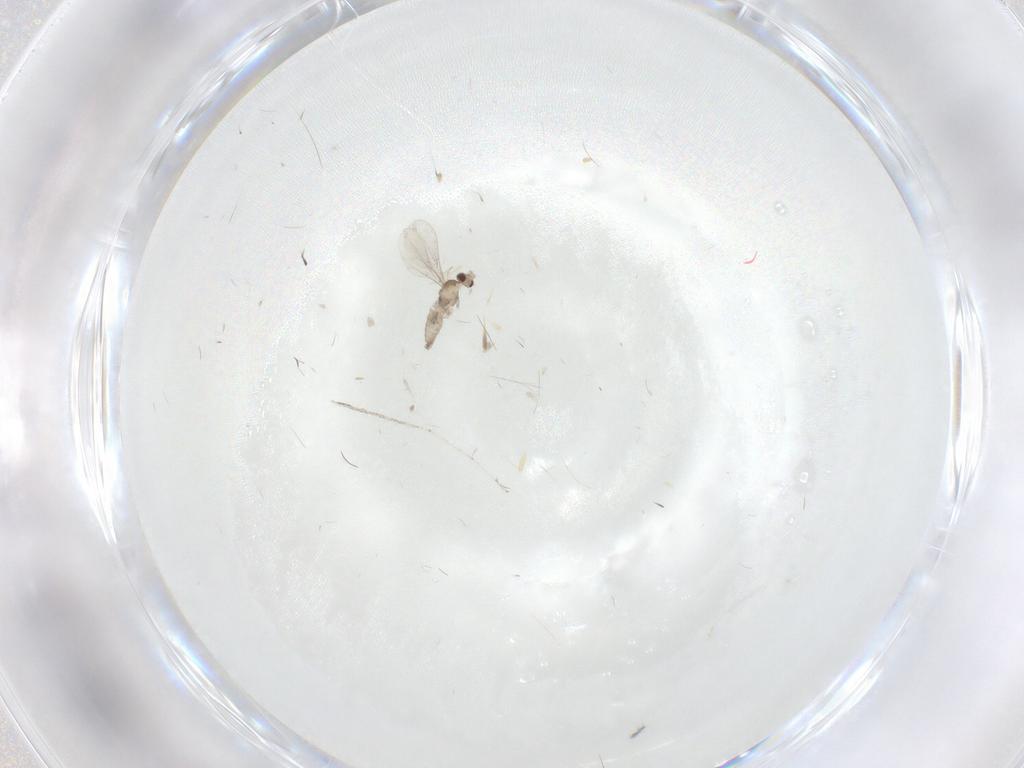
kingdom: Animalia
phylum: Arthropoda
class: Insecta
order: Diptera
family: Cecidomyiidae
